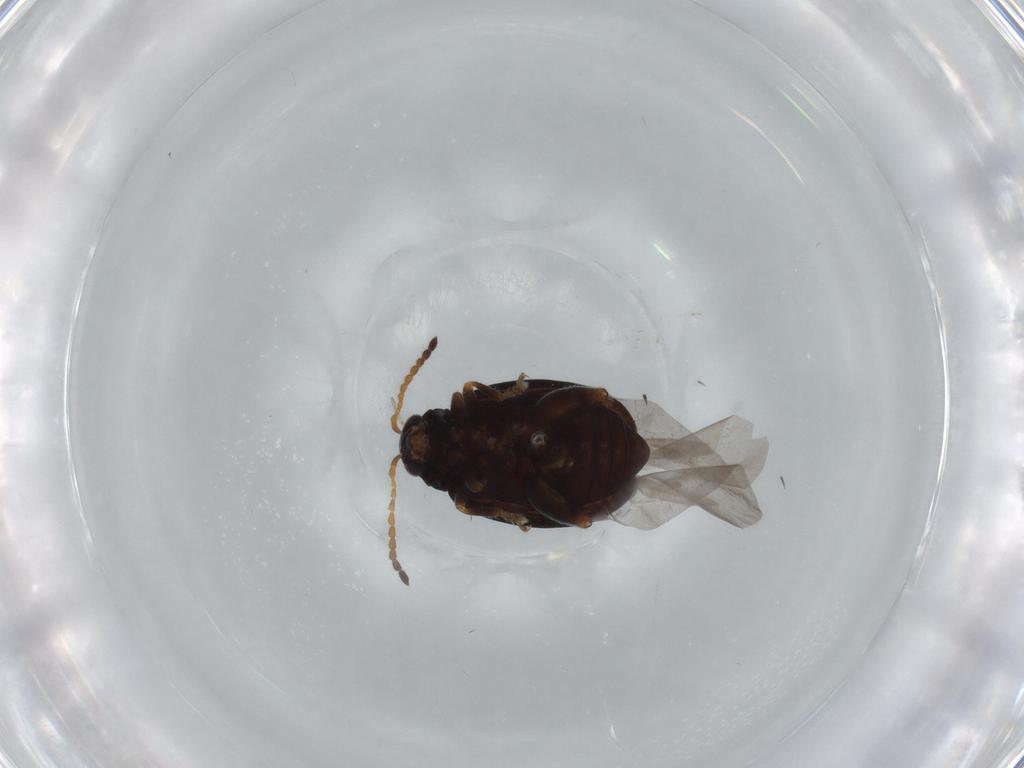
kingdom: Animalia
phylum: Arthropoda
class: Insecta
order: Coleoptera
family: Chrysomelidae
